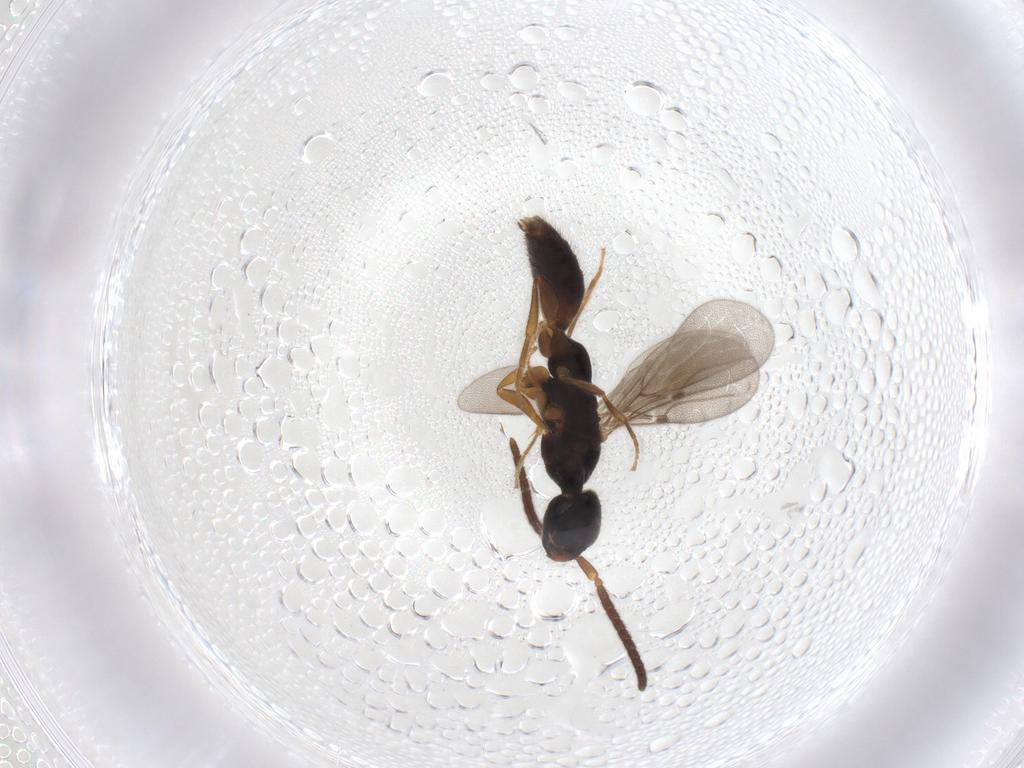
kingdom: Animalia
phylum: Arthropoda
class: Insecta
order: Hymenoptera
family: Bethylidae
